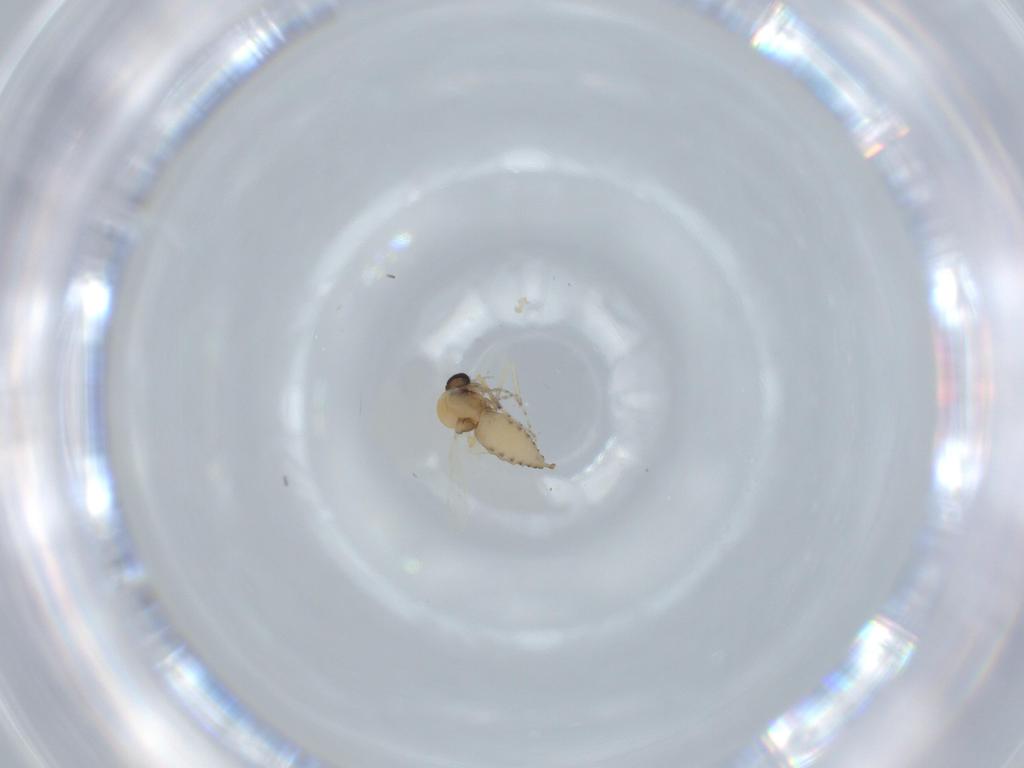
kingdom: Animalia
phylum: Arthropoda
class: Insecta
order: Diptera
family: Ceratopogonidae
